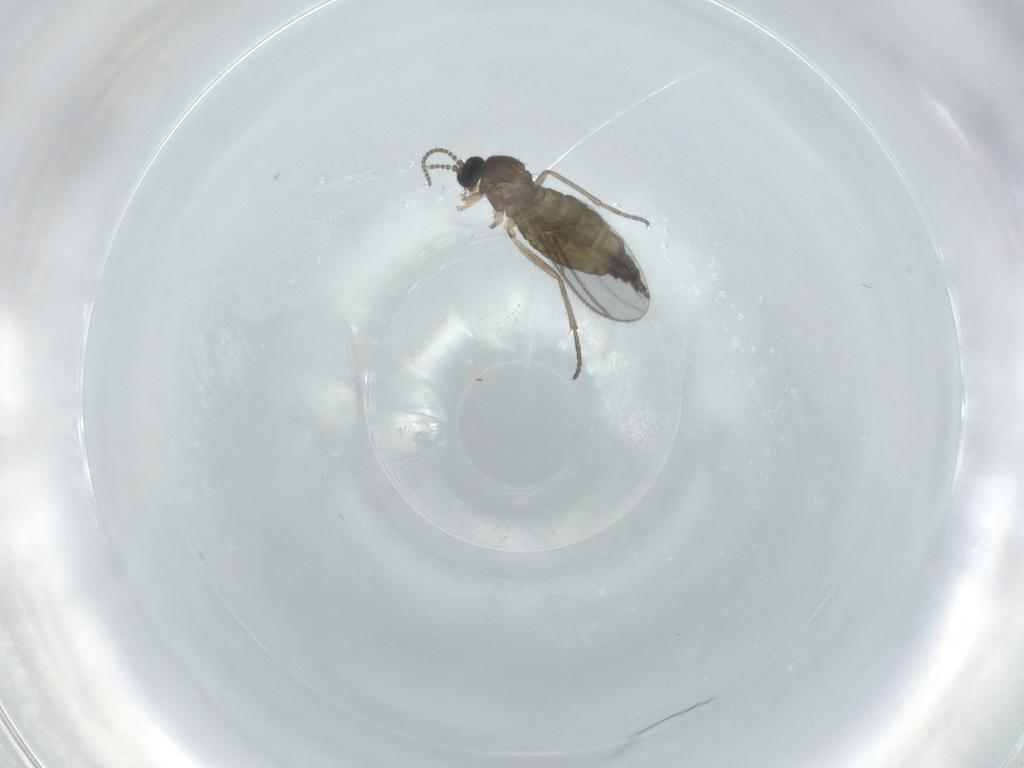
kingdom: Animalia
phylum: Arthropoda
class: Insecta
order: Diptera
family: Sciaridae
